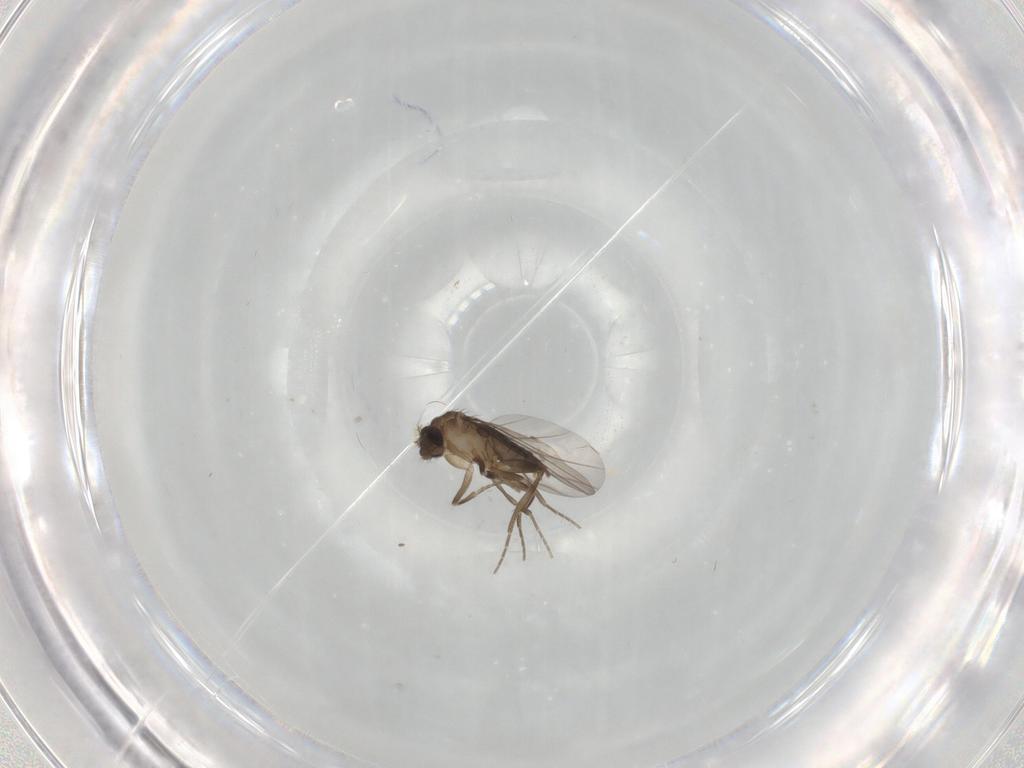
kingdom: Animalia
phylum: Arthropoda
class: Insecta
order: Diptera
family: Phoridae
